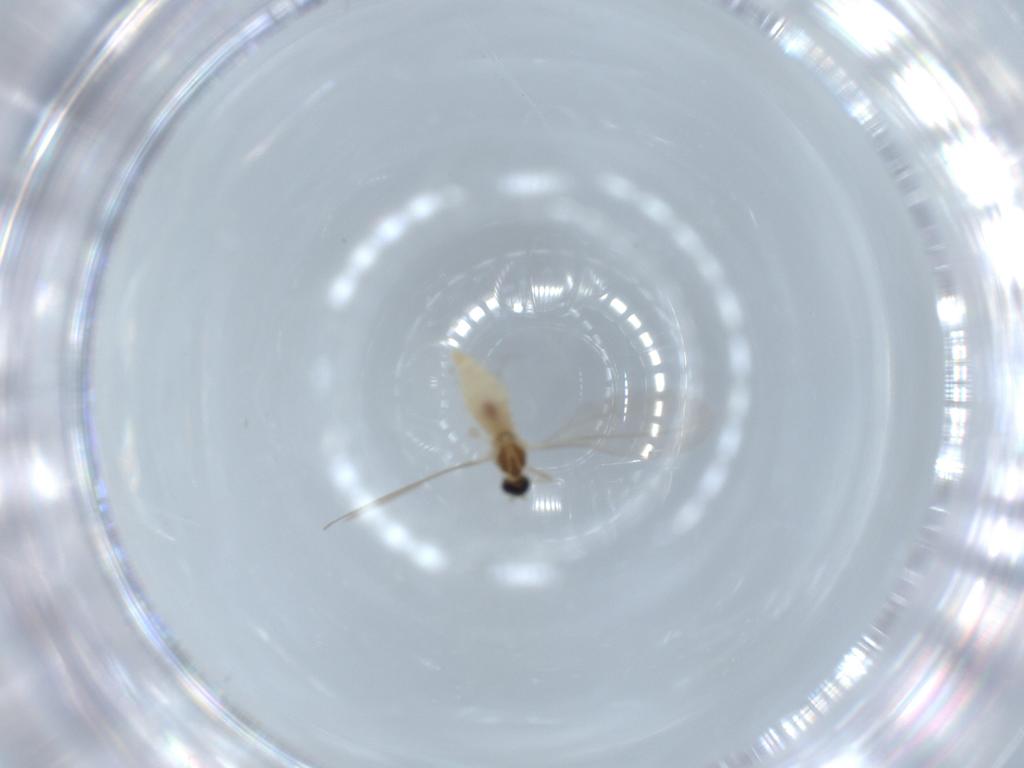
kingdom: Animalia
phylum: Arthropoda
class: Insecta
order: Diptera
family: Cecidomyiidae
